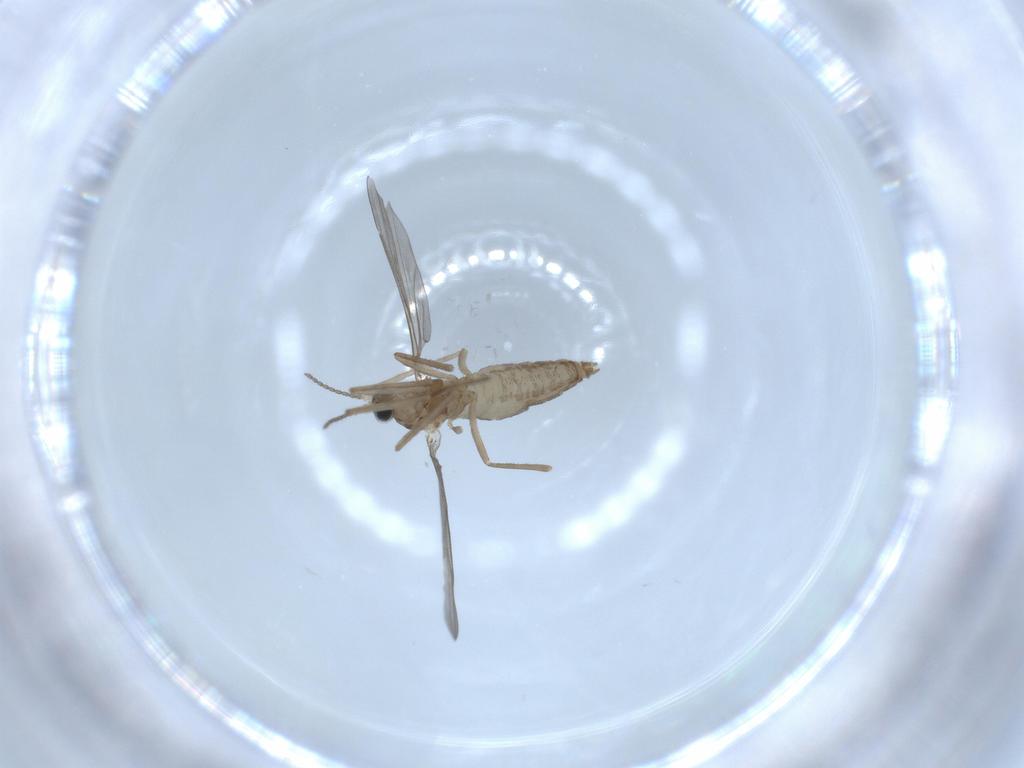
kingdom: Animalia
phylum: Arthropoda
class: Insecta
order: Diptera
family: Cecidomyiidae
